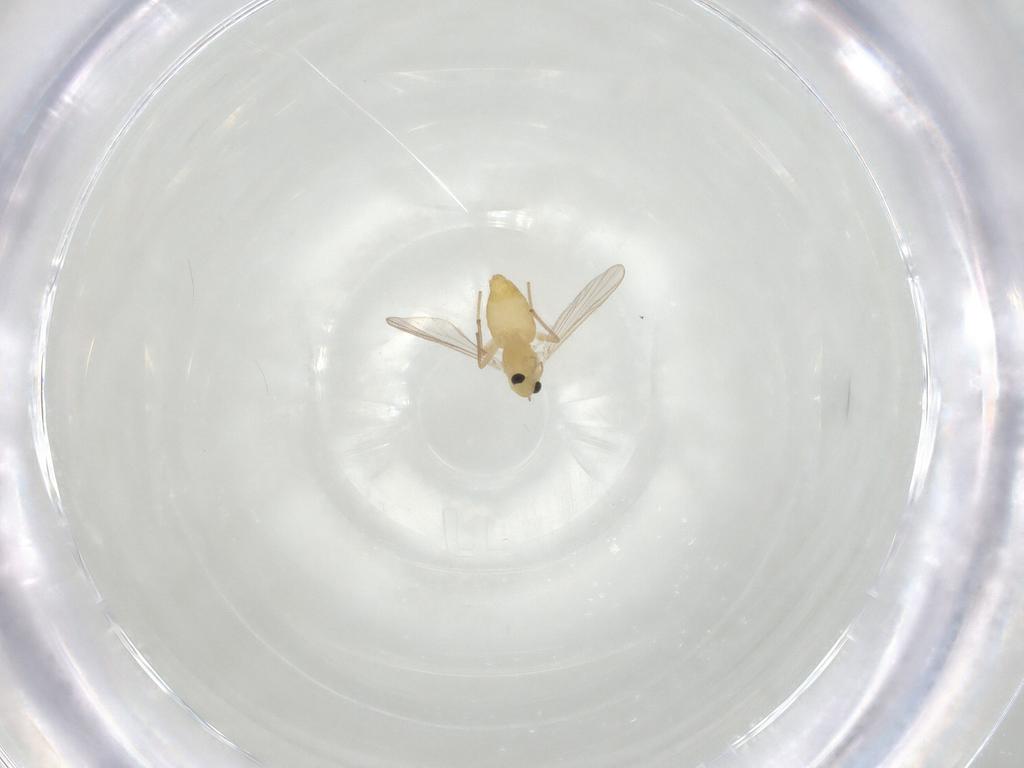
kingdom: Animalia
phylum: Arthropoda
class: Insecta
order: Diptera
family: Chironomidae
